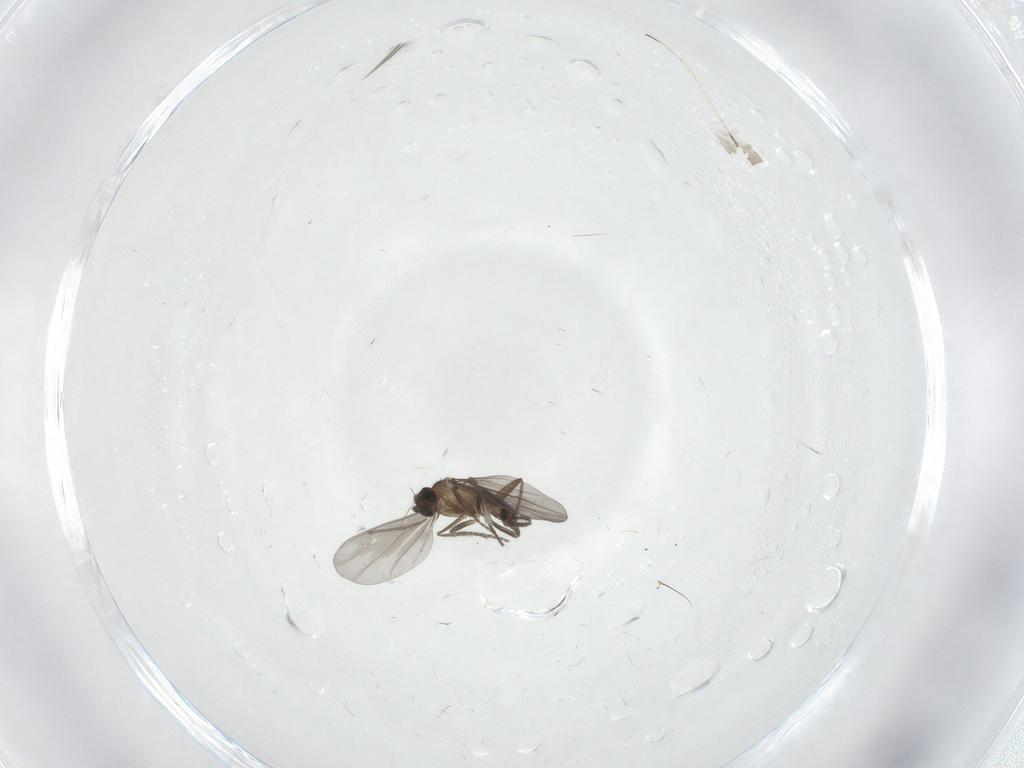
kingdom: Animalia
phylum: Arthropoda
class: Insecta
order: Diptera
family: Phoridae
